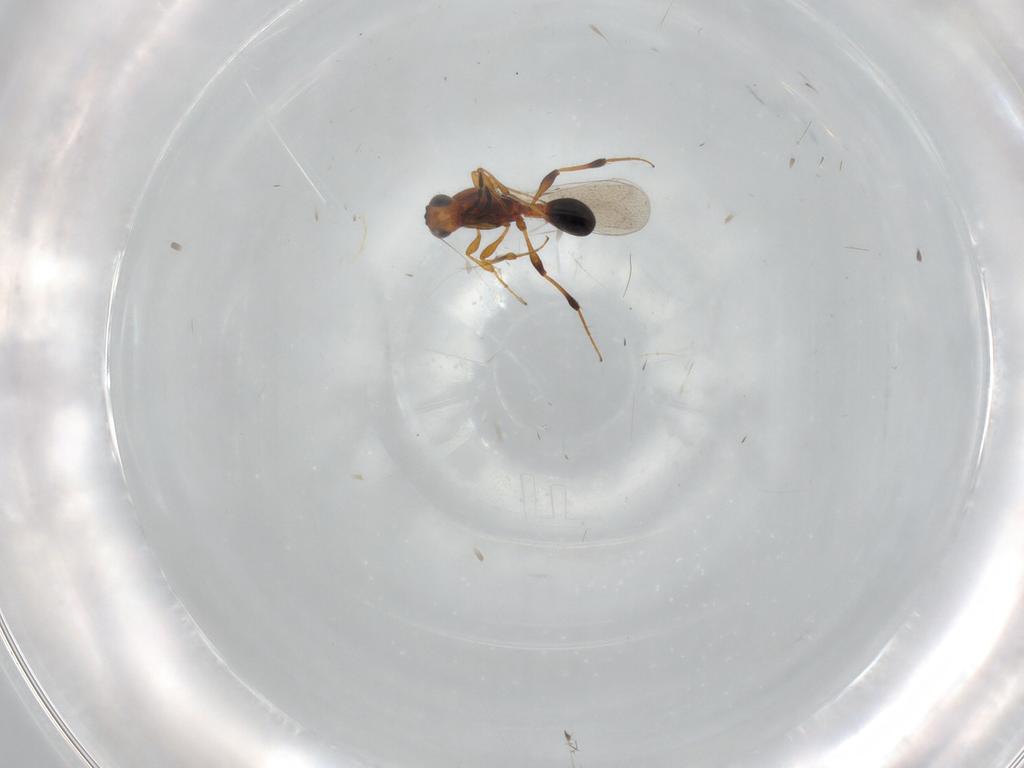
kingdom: Animalia
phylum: Arthropoda
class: Insecta
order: Hymenoptera
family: Platygastridae
